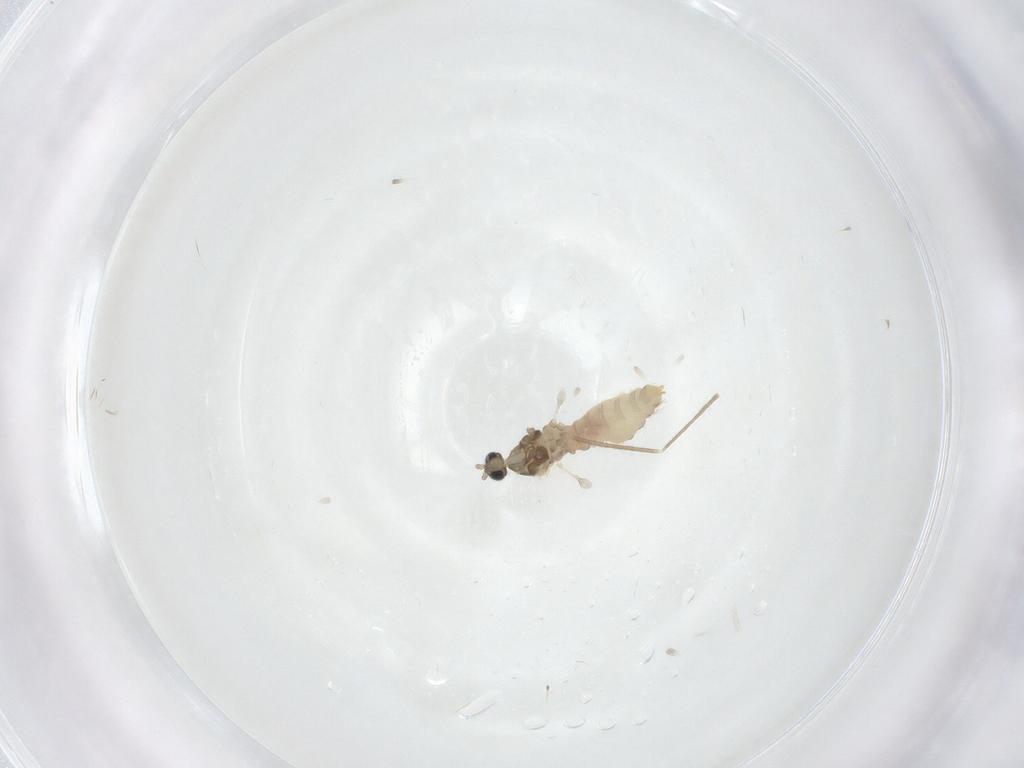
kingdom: Animalia
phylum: Arthropoda
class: Insecta
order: Diptera
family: Cecidomyiidae
